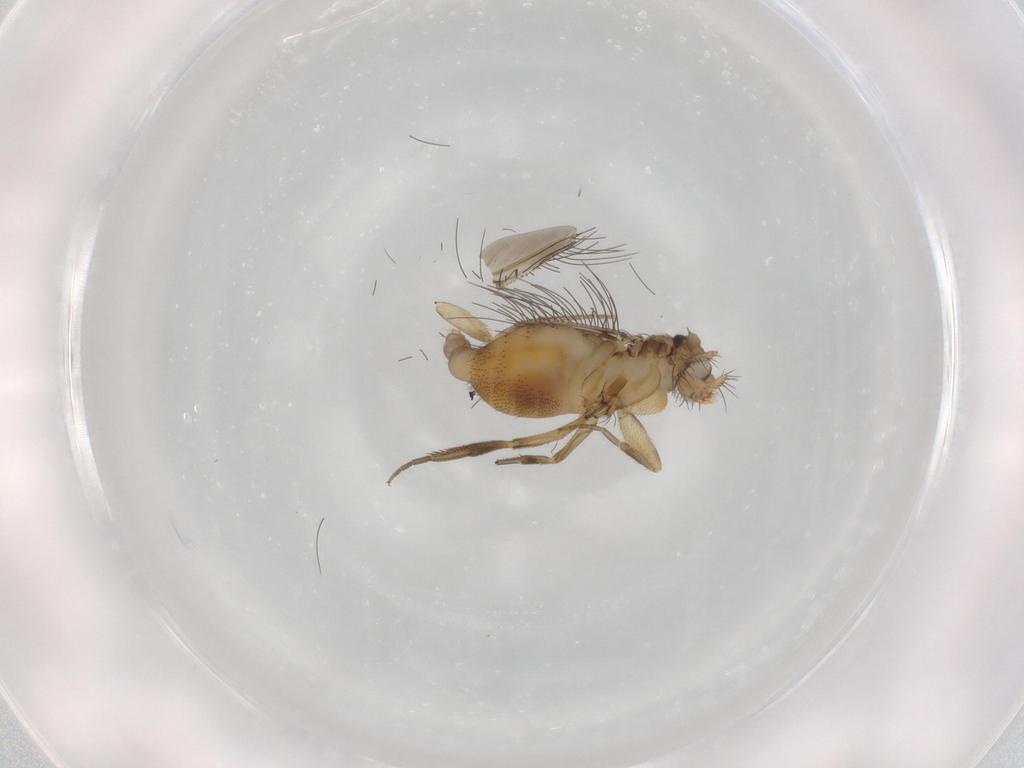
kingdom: Animalia
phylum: Arthropoda
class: Insecta
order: Diptera
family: Phoridae
